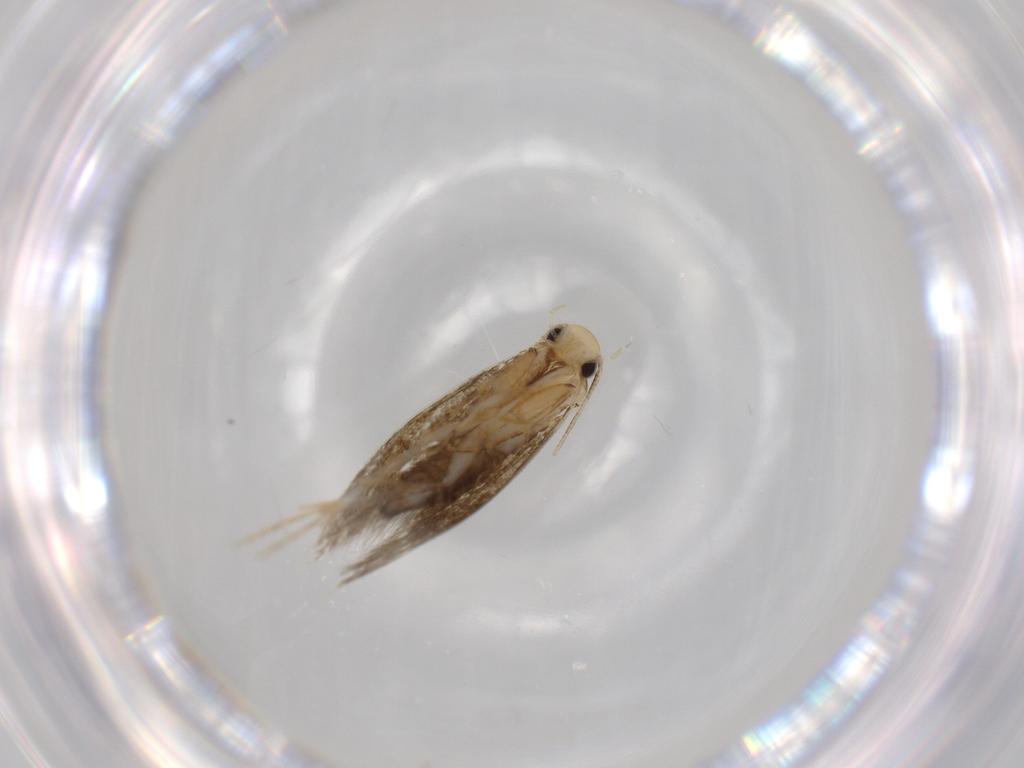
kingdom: Animalia
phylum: Arthropoda
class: Insecta
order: Lepidoptera
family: Tineidae
